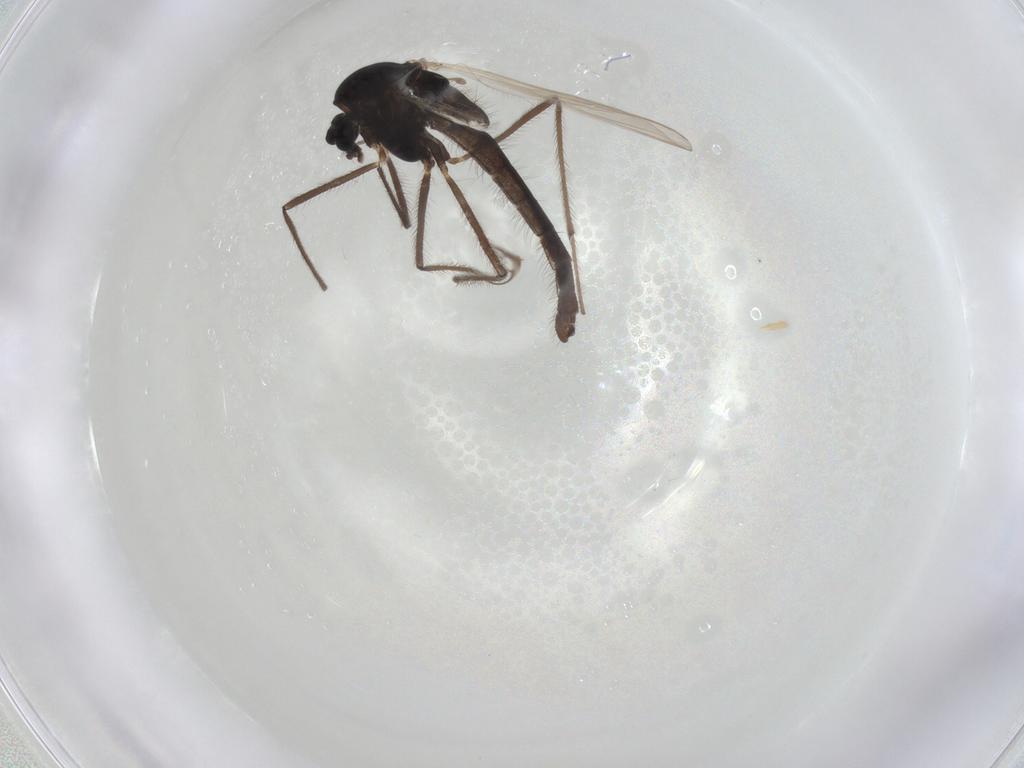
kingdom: Animalia
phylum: Arthropoda
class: Insecta
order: Diptera
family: Chironomidae
